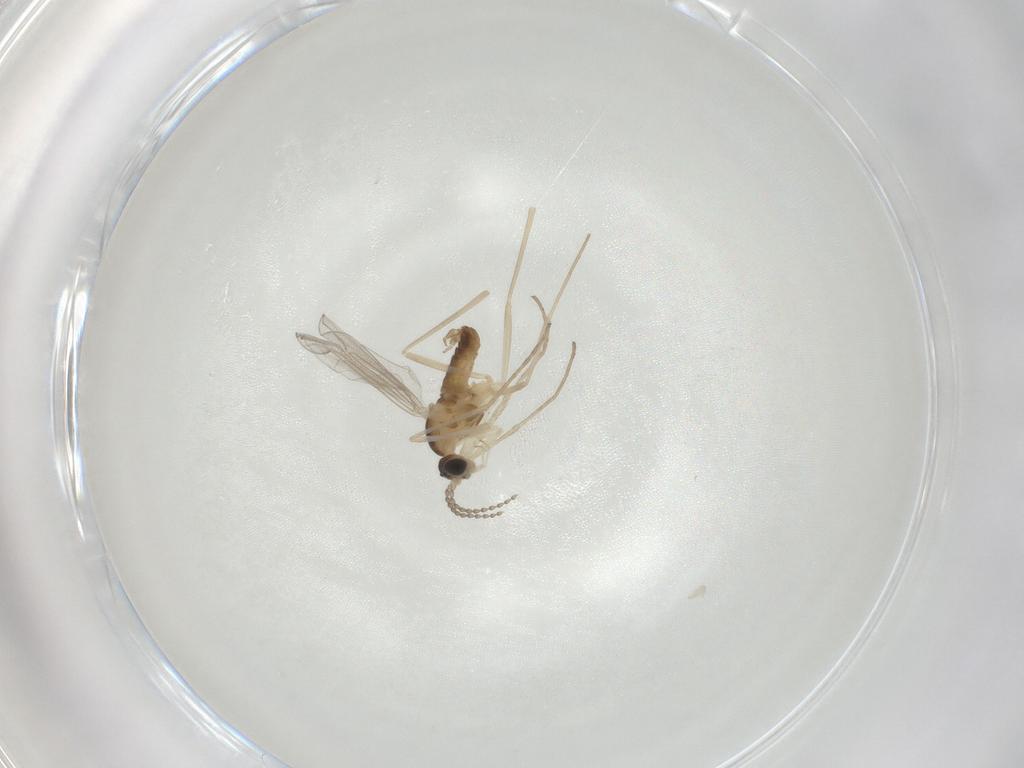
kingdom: Animalia
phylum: Arthropoda
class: Insecta
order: Diptera
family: Cecidomyiidae
